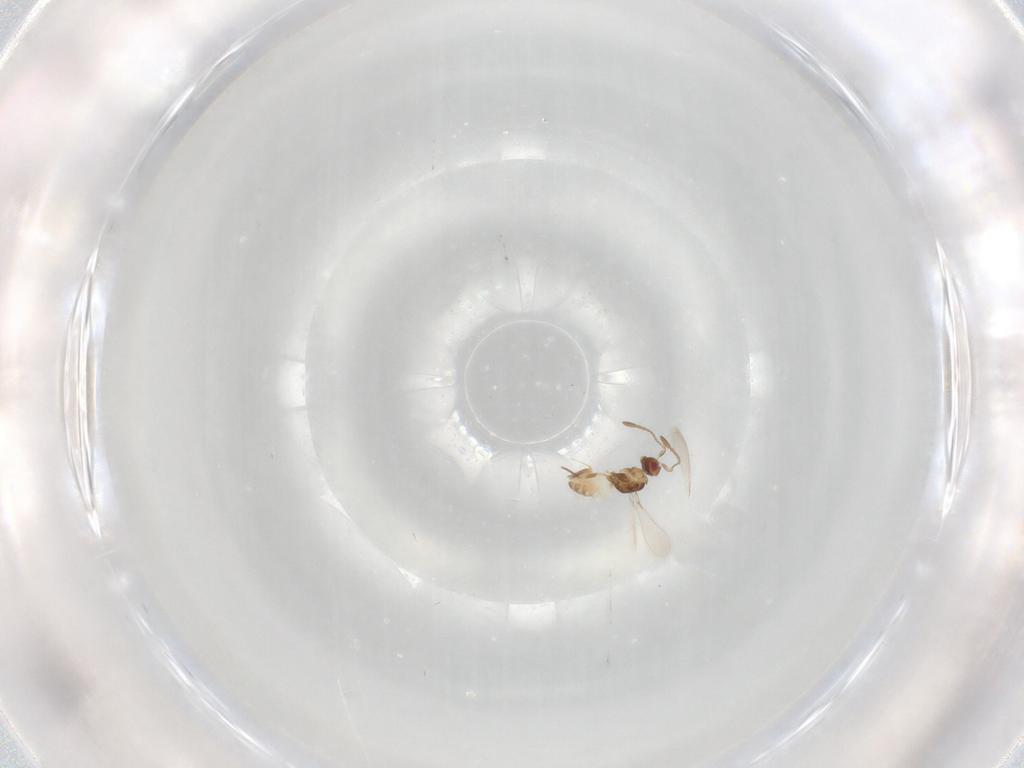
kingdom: Animalia
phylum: Arthropoda
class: Insecta
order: Hymenoptera
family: Mymaridae
